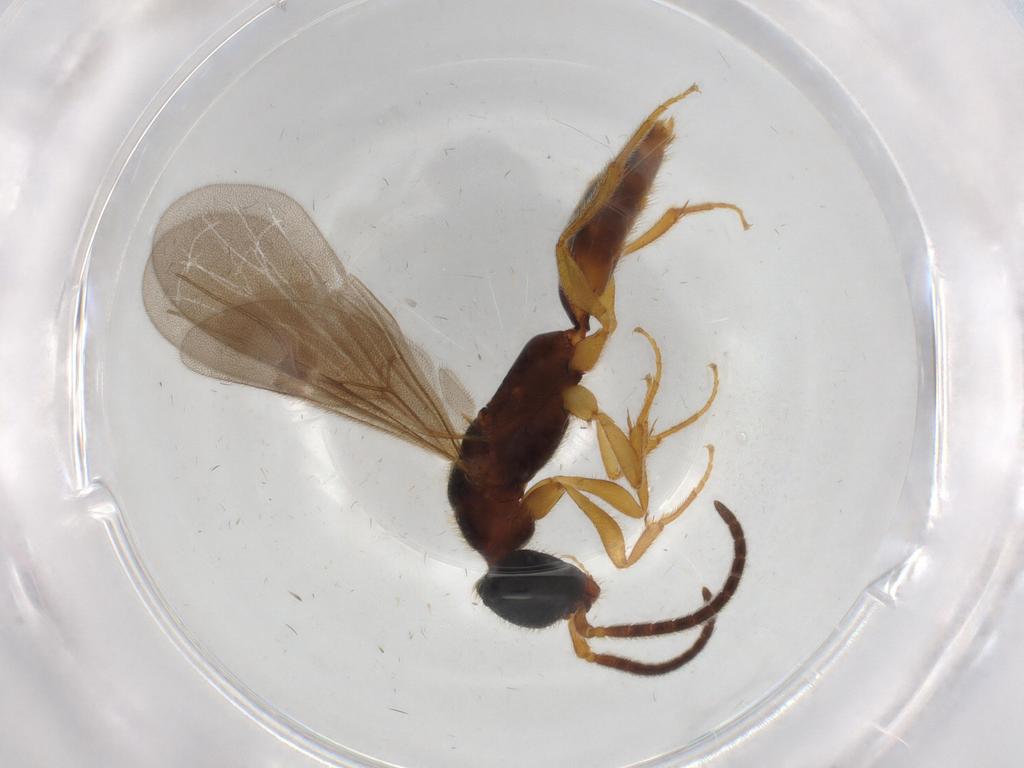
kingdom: Animalia
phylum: Arthropoda
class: Insecta
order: Hymenoptera
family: Bethylidae
